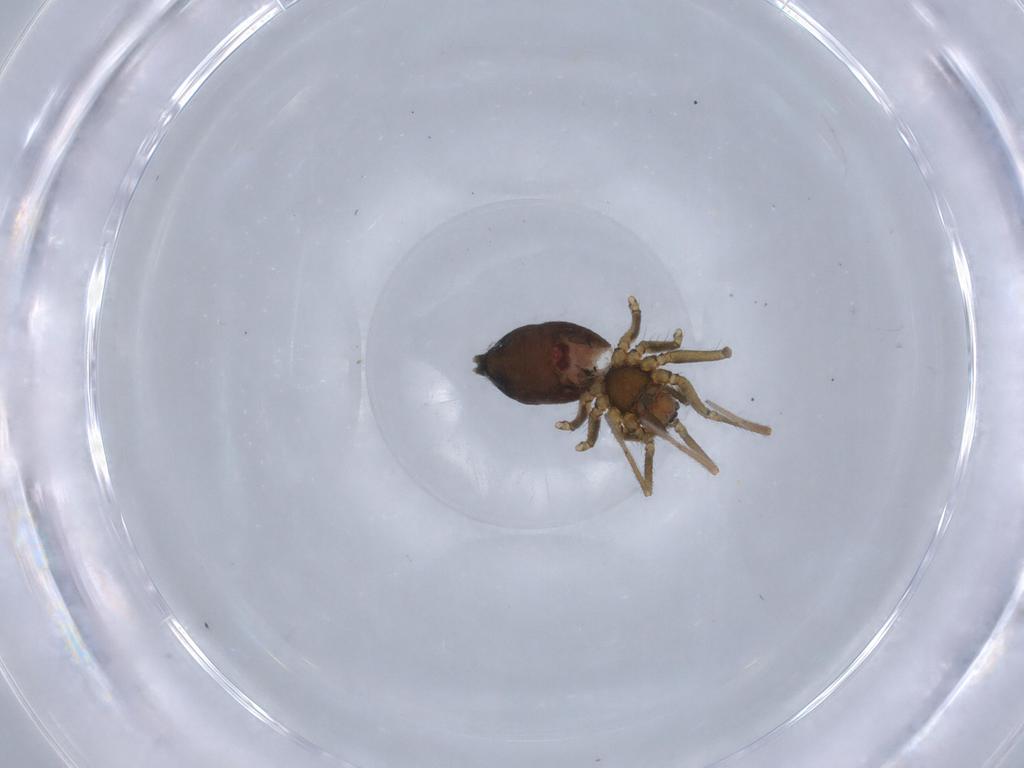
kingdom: Animalia
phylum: Arthropoda
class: Arachnida
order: Araneae
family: Linyphiidae
